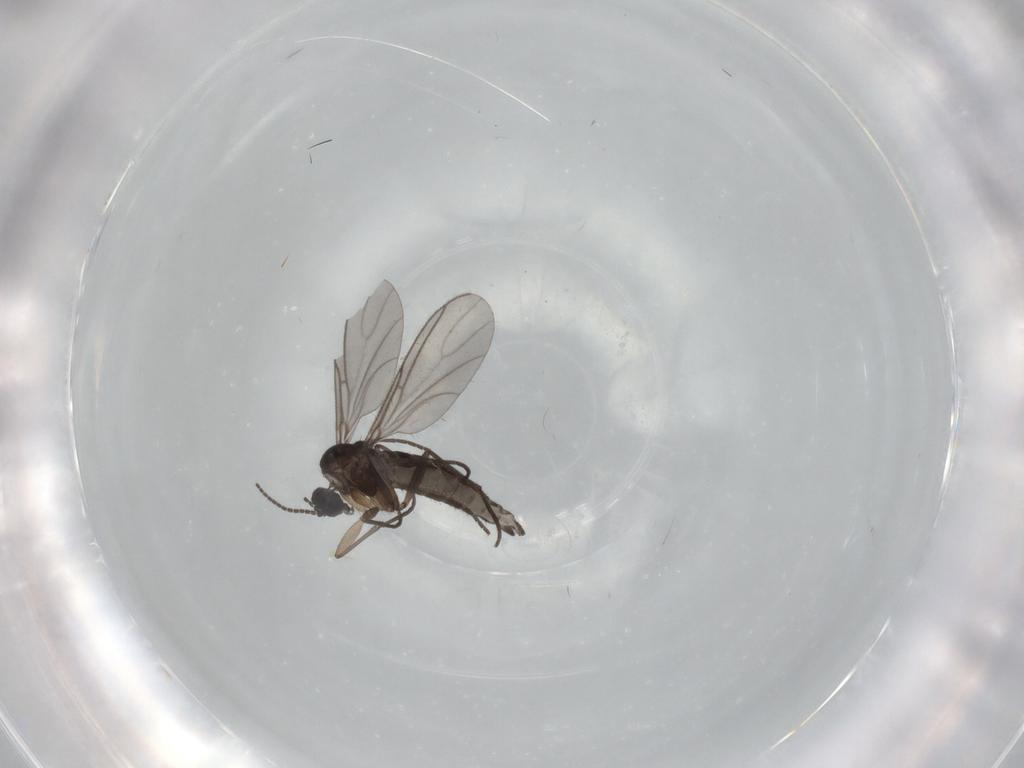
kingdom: Animalia
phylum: Arthropoda
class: Insecta
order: Diptera
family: Sciaridae
